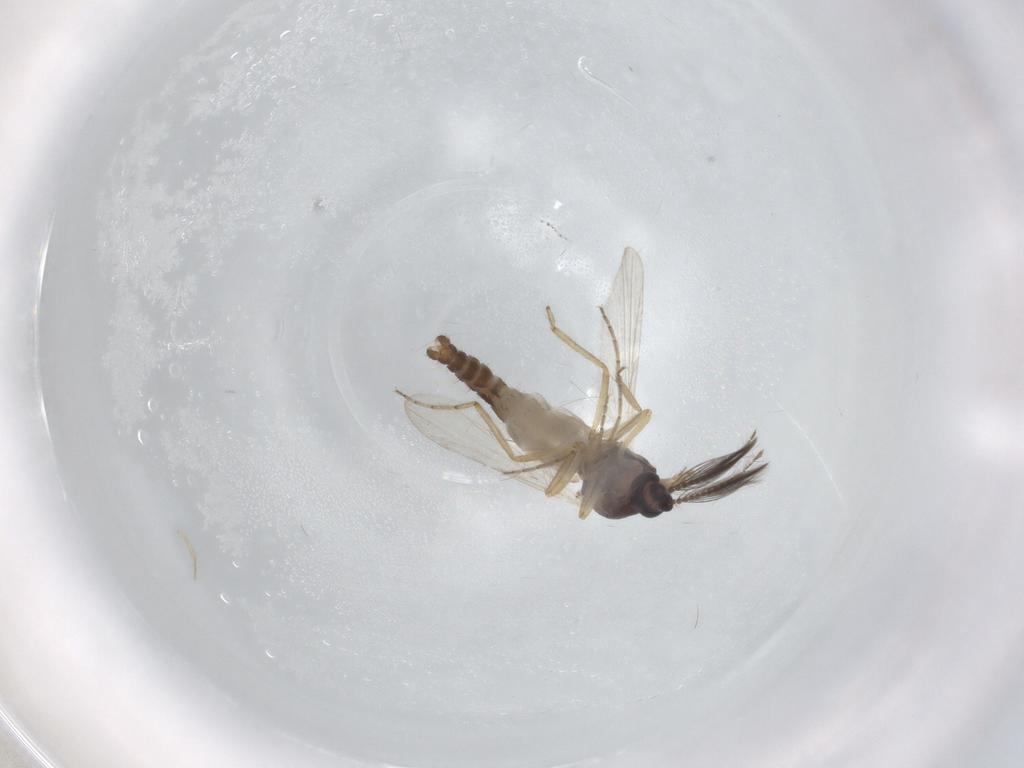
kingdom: Animalia
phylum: Arthropoda
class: Insecta
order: Diptera
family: Ceratopogonidae
